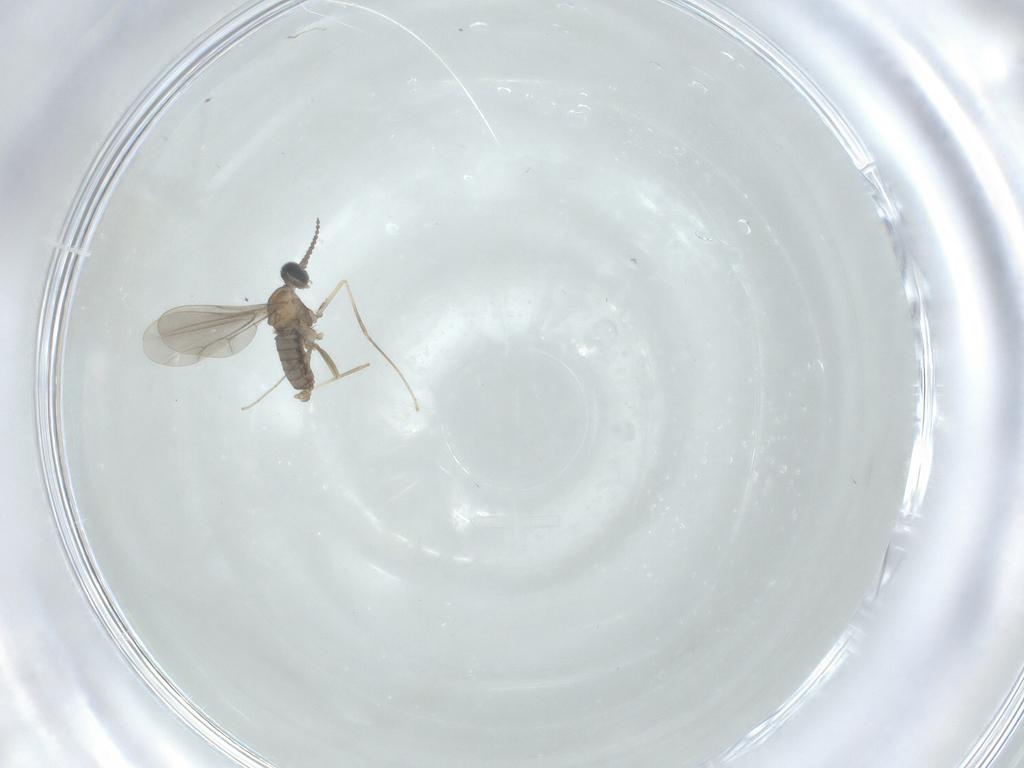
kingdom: Animalia
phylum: Arthropoda
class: Insecta
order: Diptera
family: Cecidomyiidae
